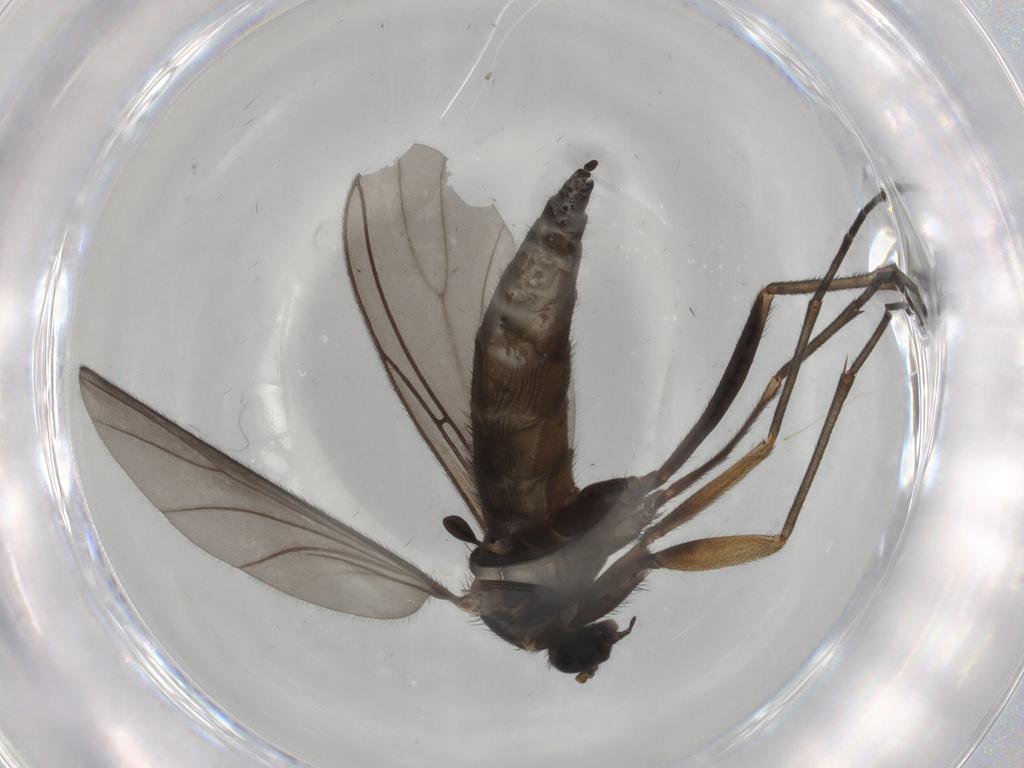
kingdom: Animalia
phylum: Arthropoda
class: Insecta
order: Diptera
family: Sciaridae
